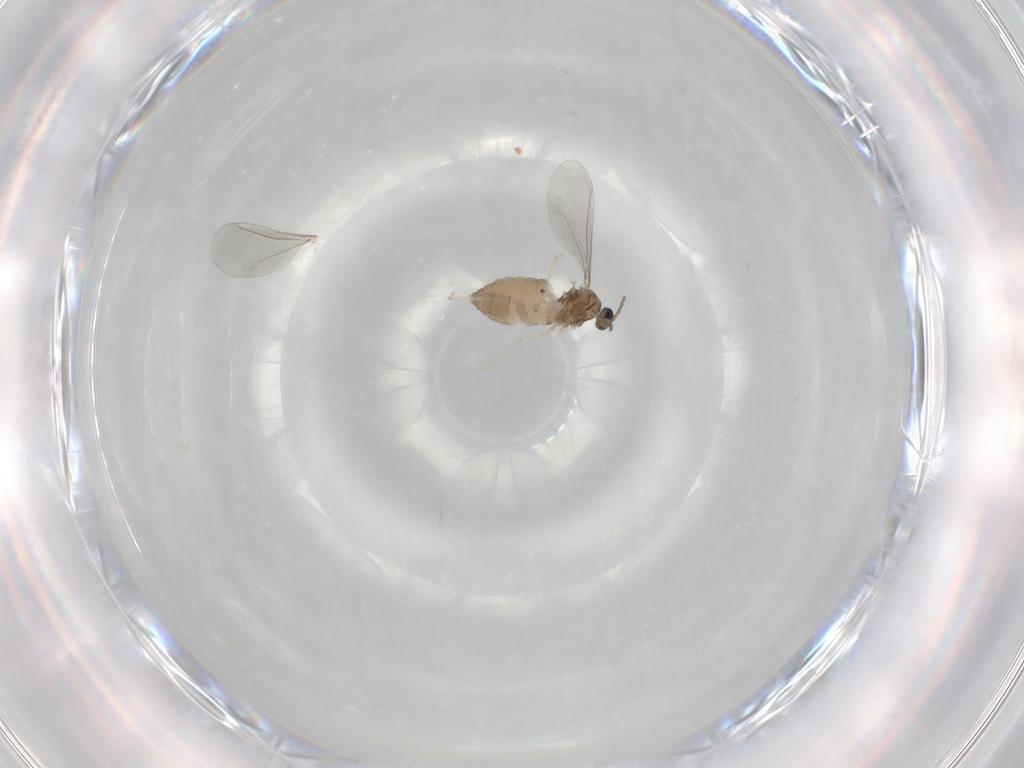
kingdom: Animalia
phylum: Arthropoda
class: Insecta
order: Diptera
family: Cecidomyiidae
